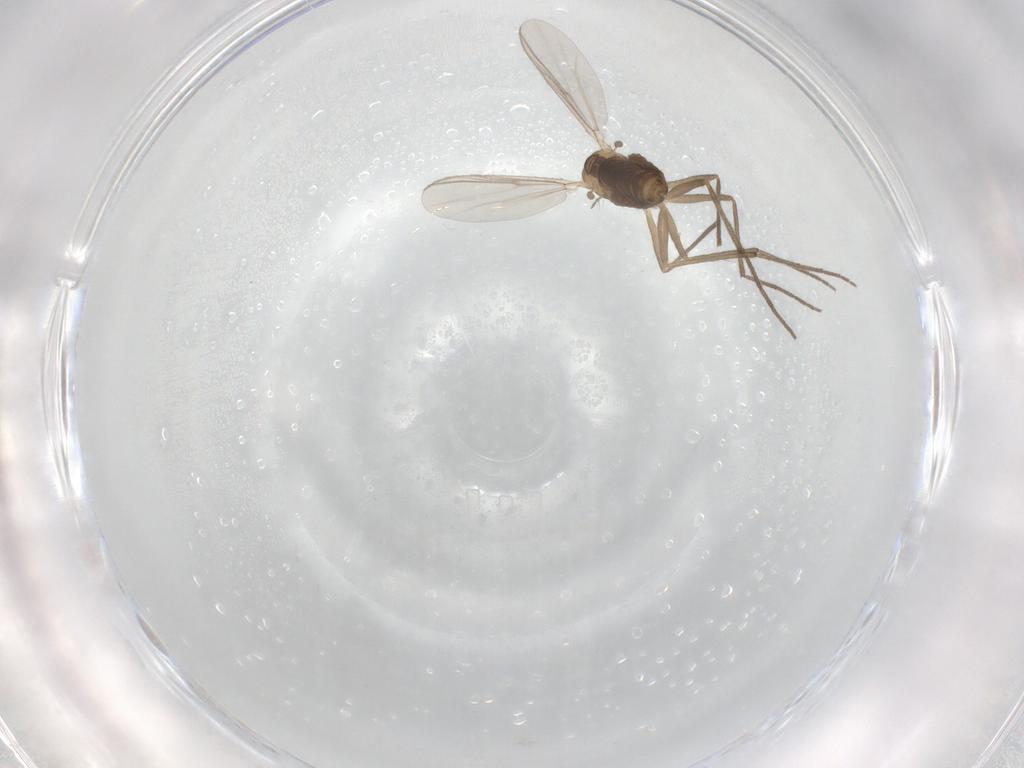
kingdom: Animalia
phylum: Arthropoda
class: Insecta
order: Diptera
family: Chironomidae
